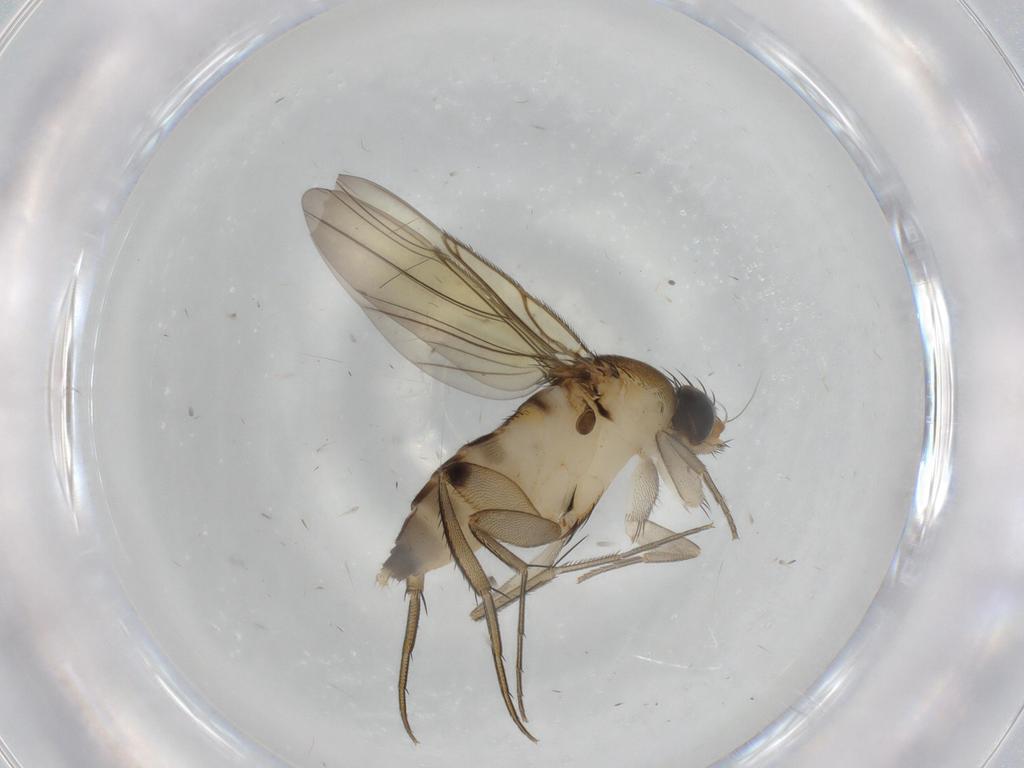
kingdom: Animalia
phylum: Arthropoda
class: Insecta
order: Diptera
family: Phoridae
